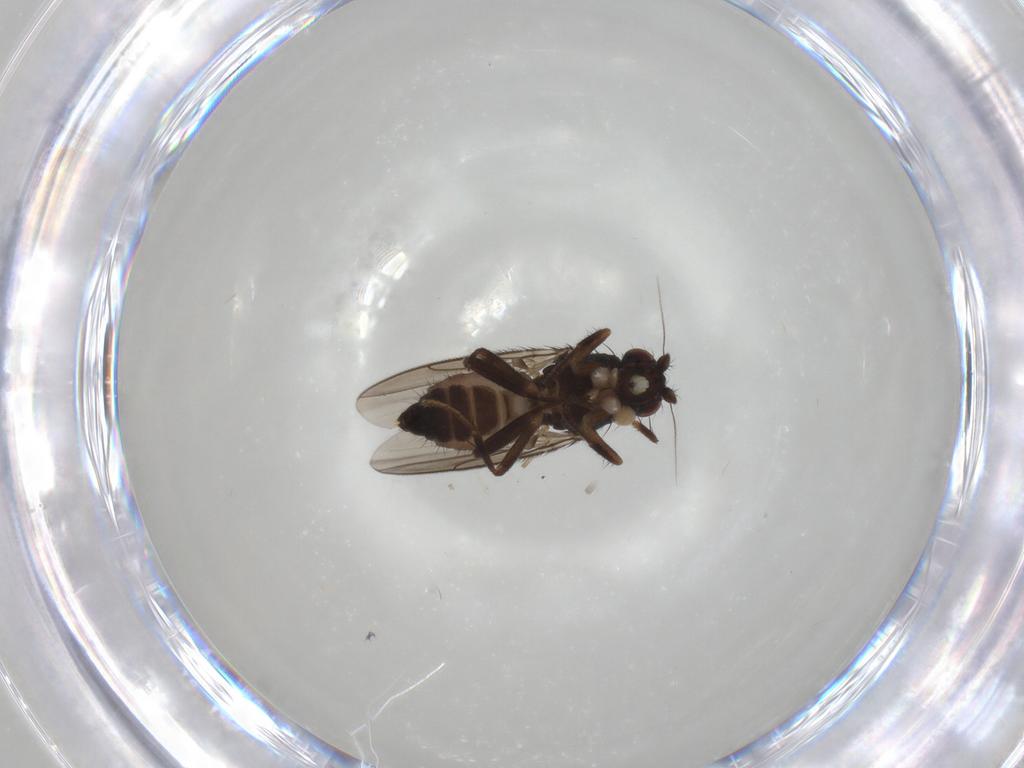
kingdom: Animalia
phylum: Arthropoda
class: Insecta
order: Diptera
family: Sphaeroceridae
